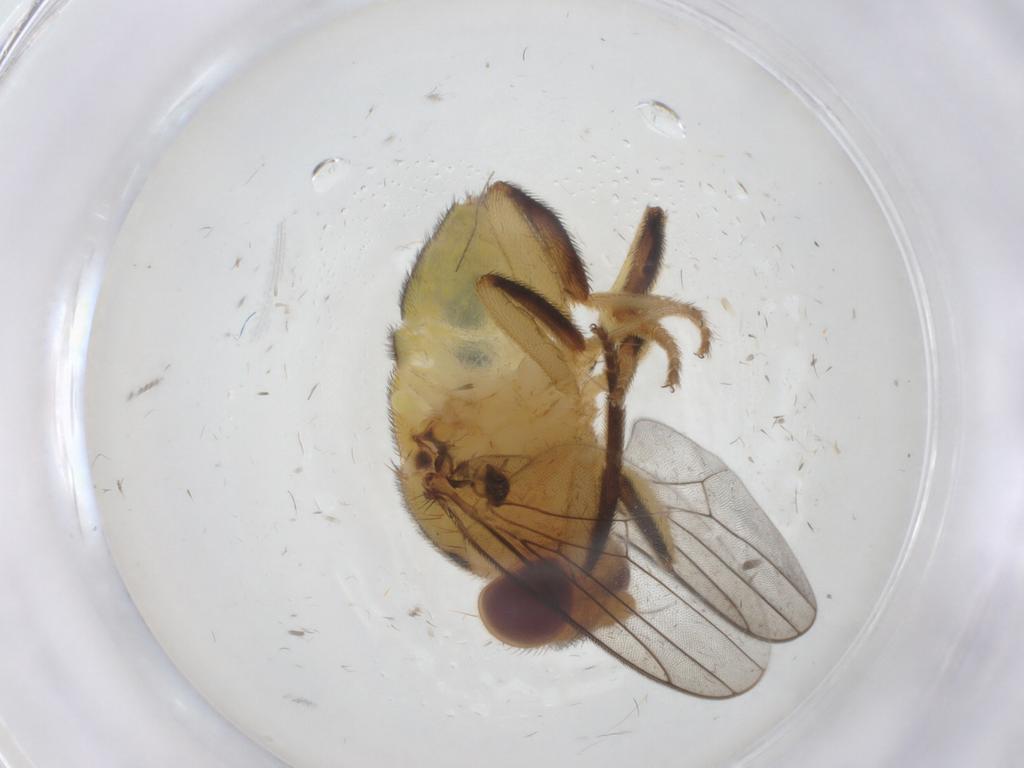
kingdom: Animalia
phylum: Arthropoda
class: Insecta
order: Diptera
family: Chloropidae
